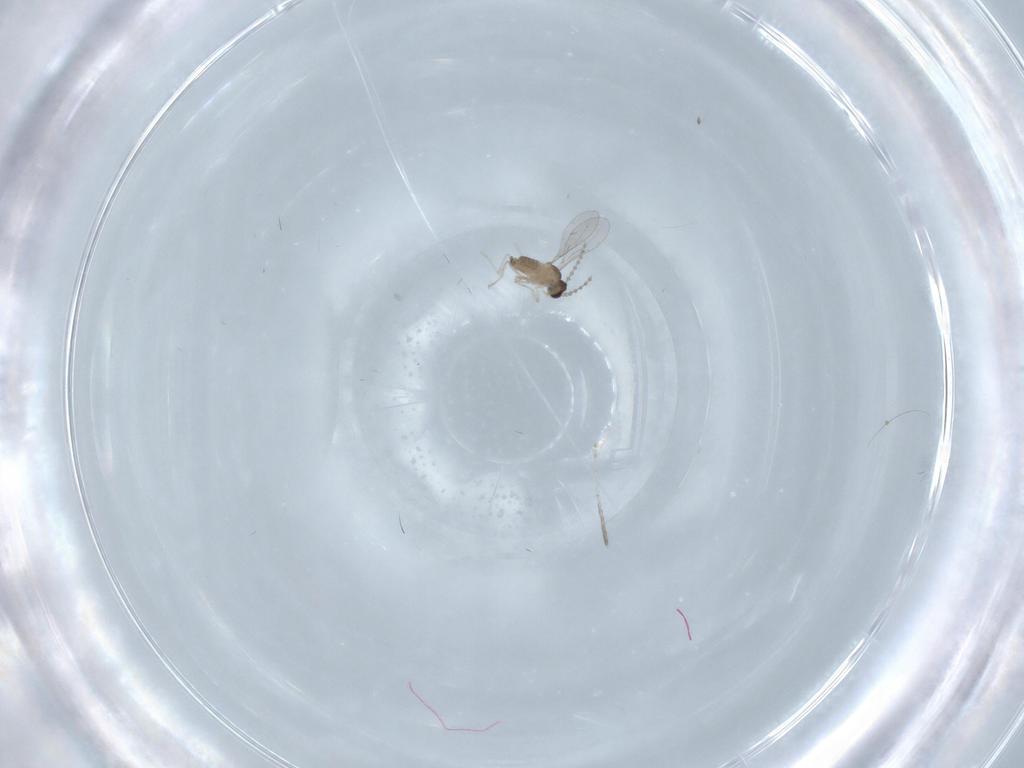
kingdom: Animalia
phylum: Arthropoda
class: Insecta
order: Diptera
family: Cecidomyiidae
